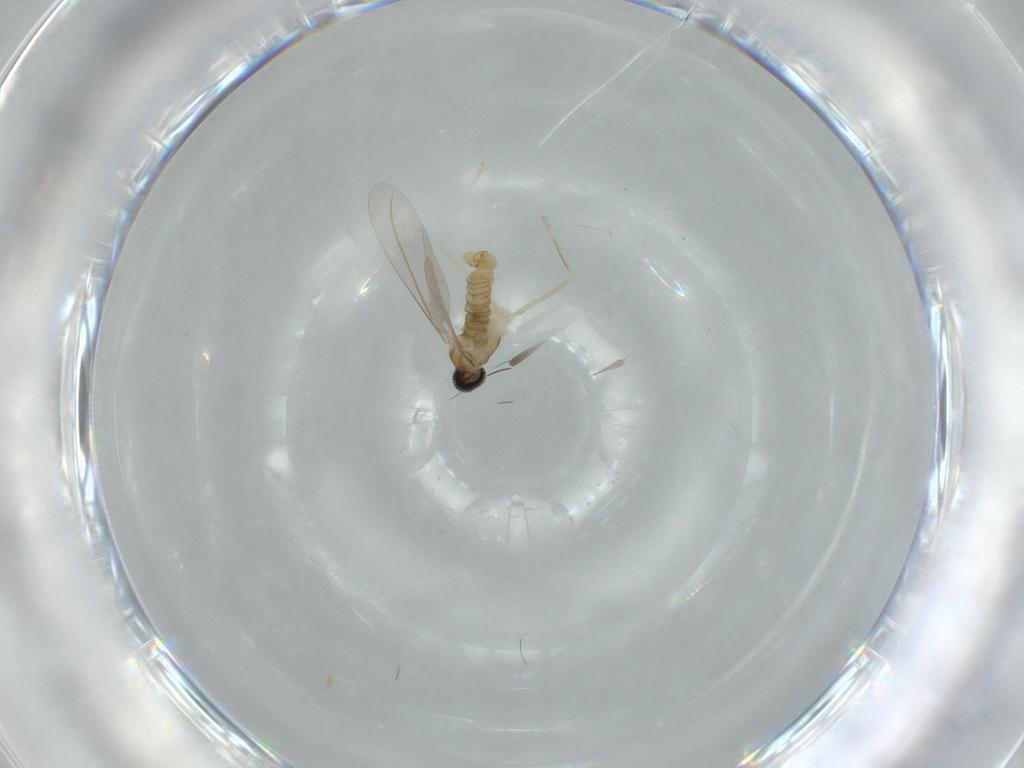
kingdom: Animalia
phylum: Arthropoda
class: Insecta
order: Diptera
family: Phoridae
